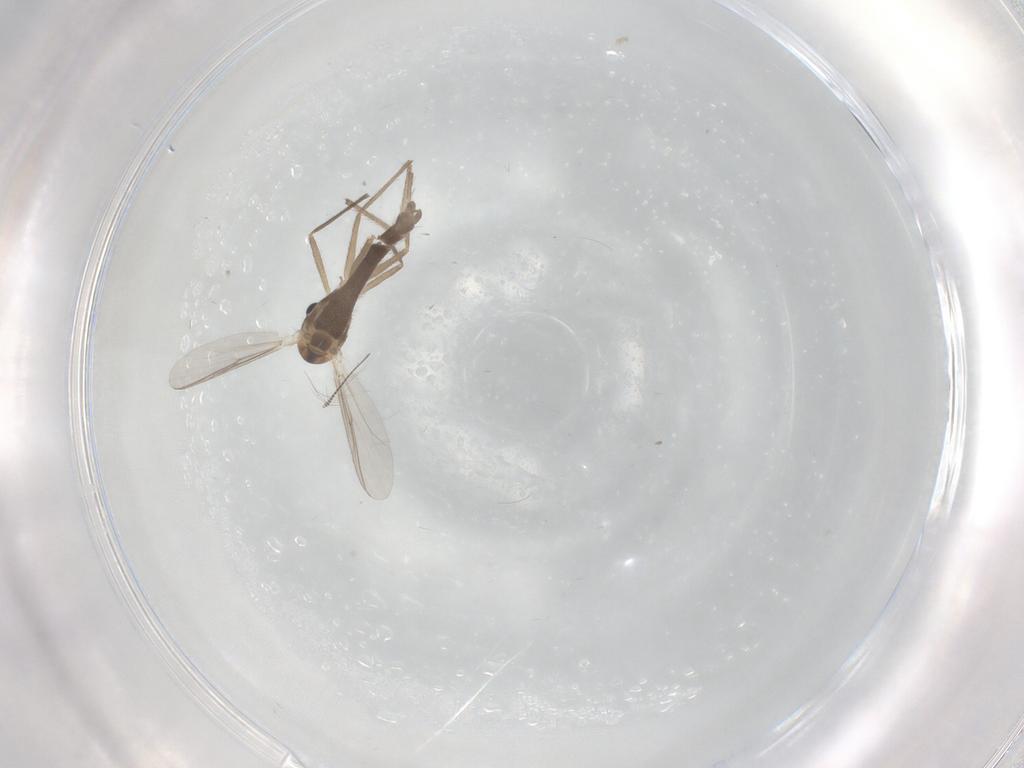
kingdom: Animalia
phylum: Arthropoda
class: Insecta
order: Diptera
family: Chironomidae
